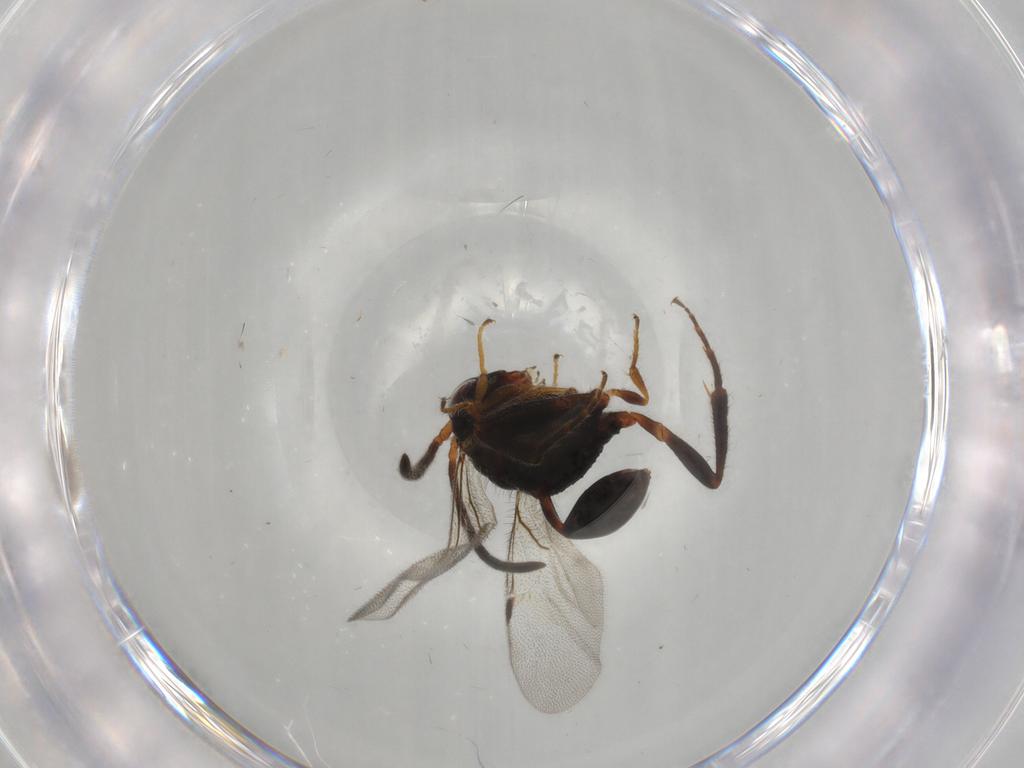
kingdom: Animalia
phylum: Arthropoda
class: Insecta
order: Hymenoptera
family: Evaniidae
